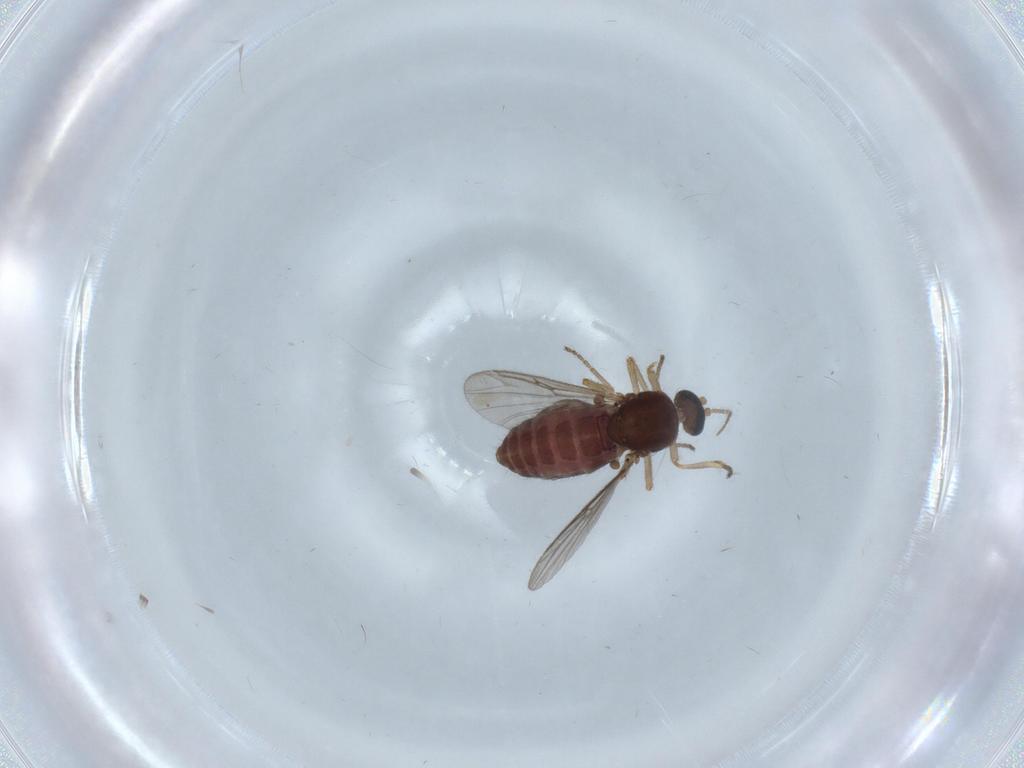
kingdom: Animalia
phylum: Arthropoda
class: Insecta
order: Diptera
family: Ceratopogonidae
